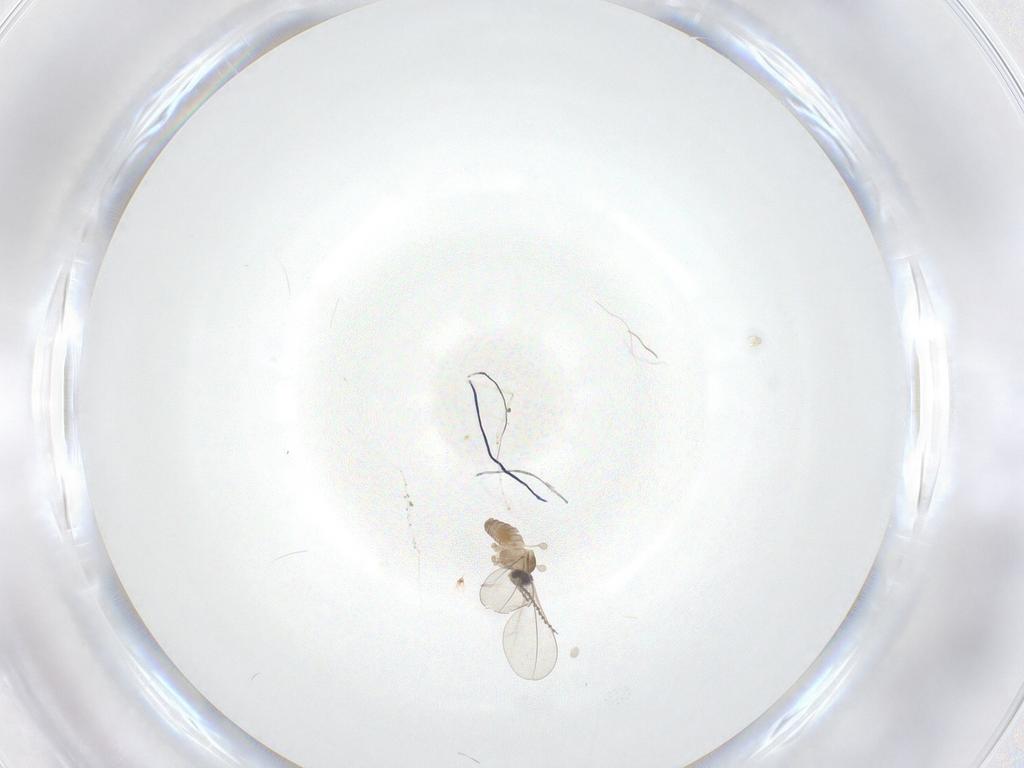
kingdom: Animalia
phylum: Arthropoda
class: Insecta
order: Diptera
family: Cecidomyiidae
